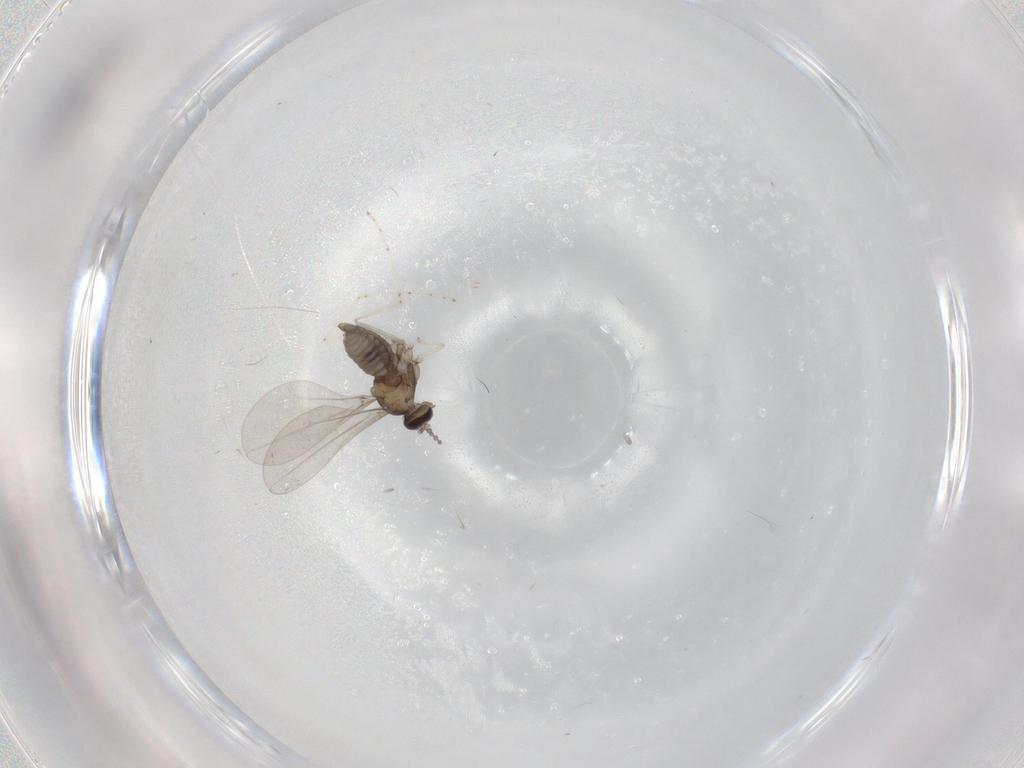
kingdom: Animalia
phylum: Arthropoda
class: Insecta
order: Diptera
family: Cecidomyiidae
